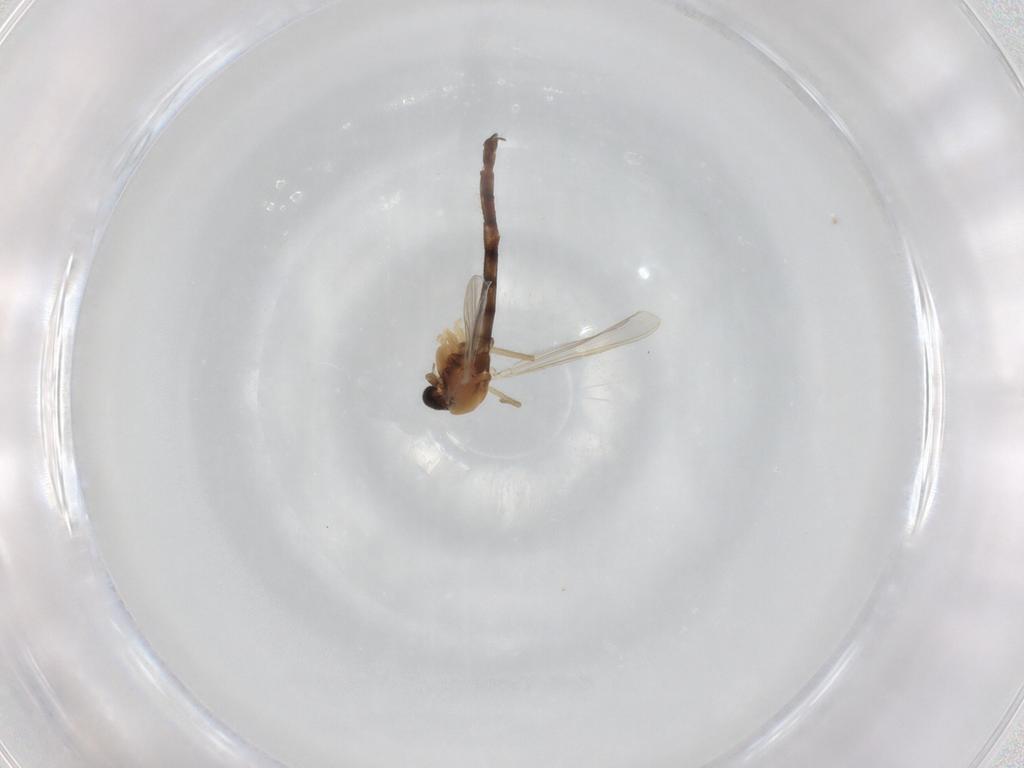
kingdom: Animalia
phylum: Arthropoda
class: Insecta
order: Diptera
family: Chironomidae
